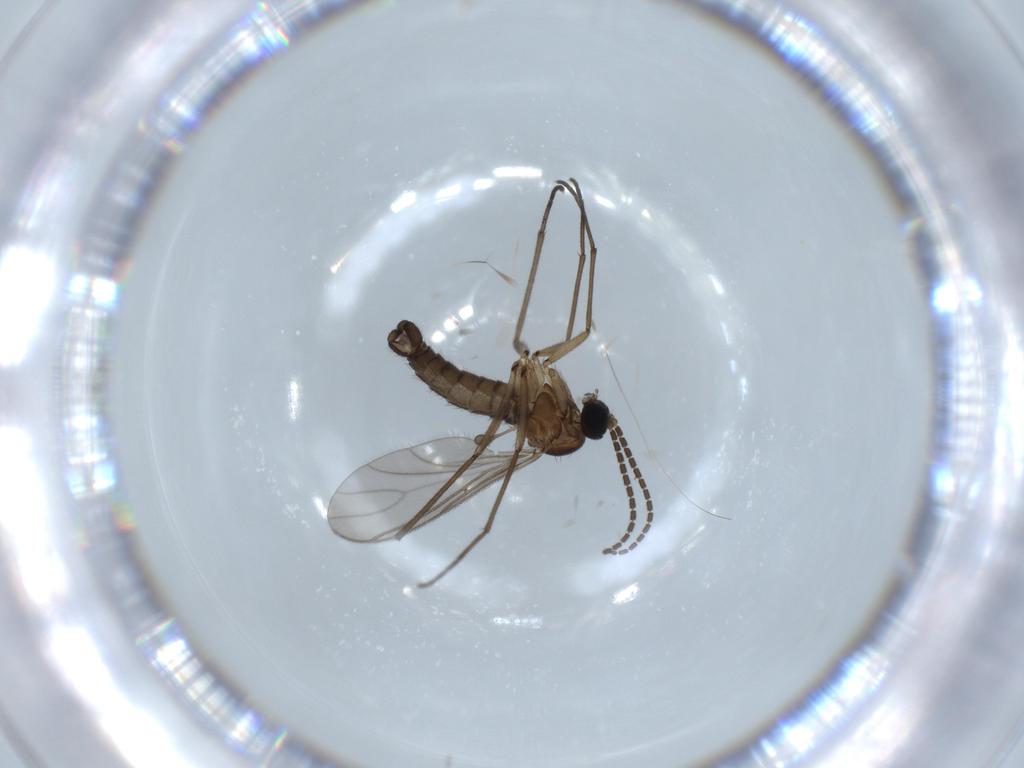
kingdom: Animalia
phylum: Arthropoda
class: Insecta
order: Diptera
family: Sciaridae
